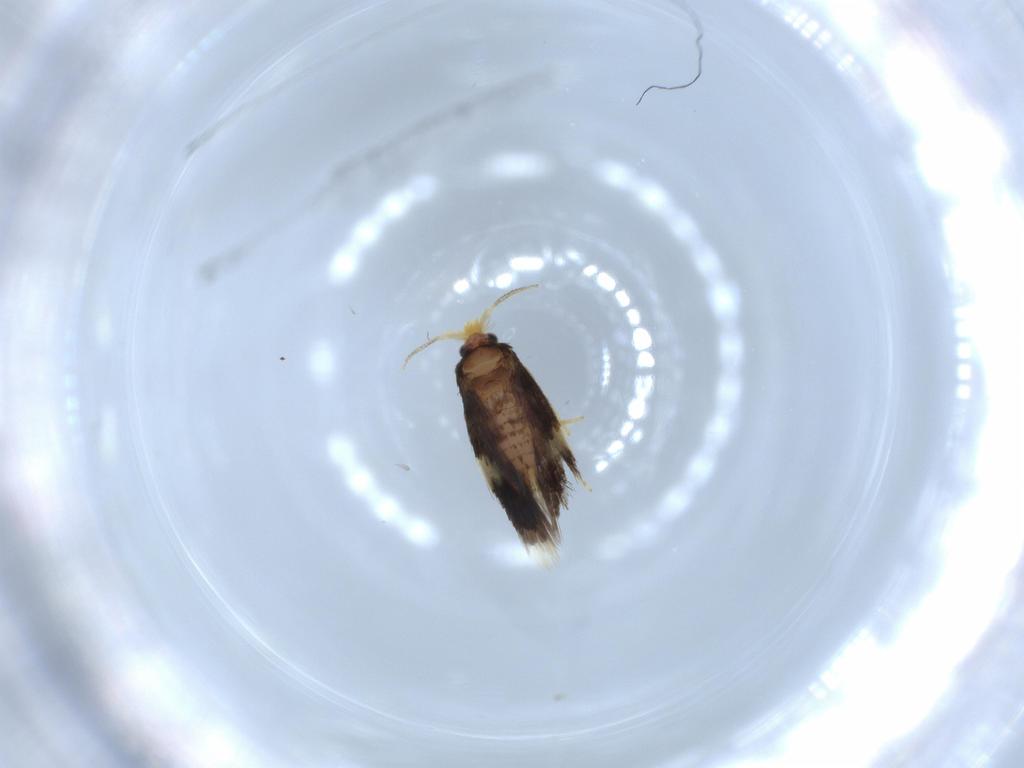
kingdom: Animalia
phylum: Arthropoda
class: Insecta
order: Lepidoptera
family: Nepticulidae
